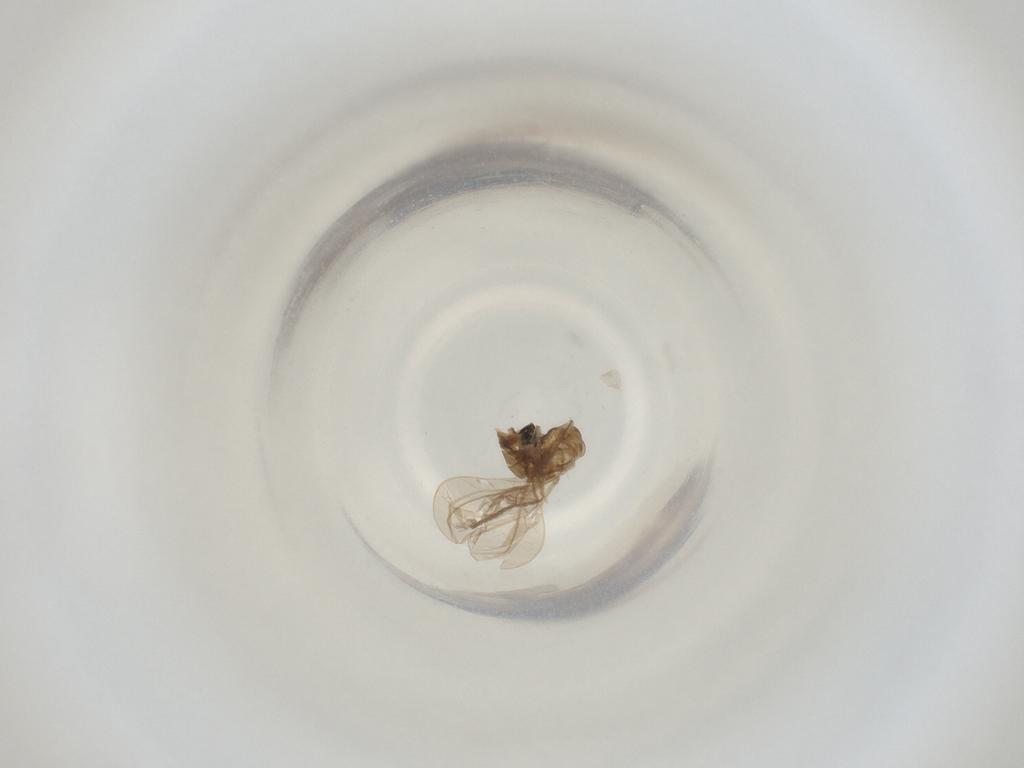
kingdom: Animalia
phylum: Arthropoda
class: Insecta
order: Diptera
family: Cecidomyiidae
